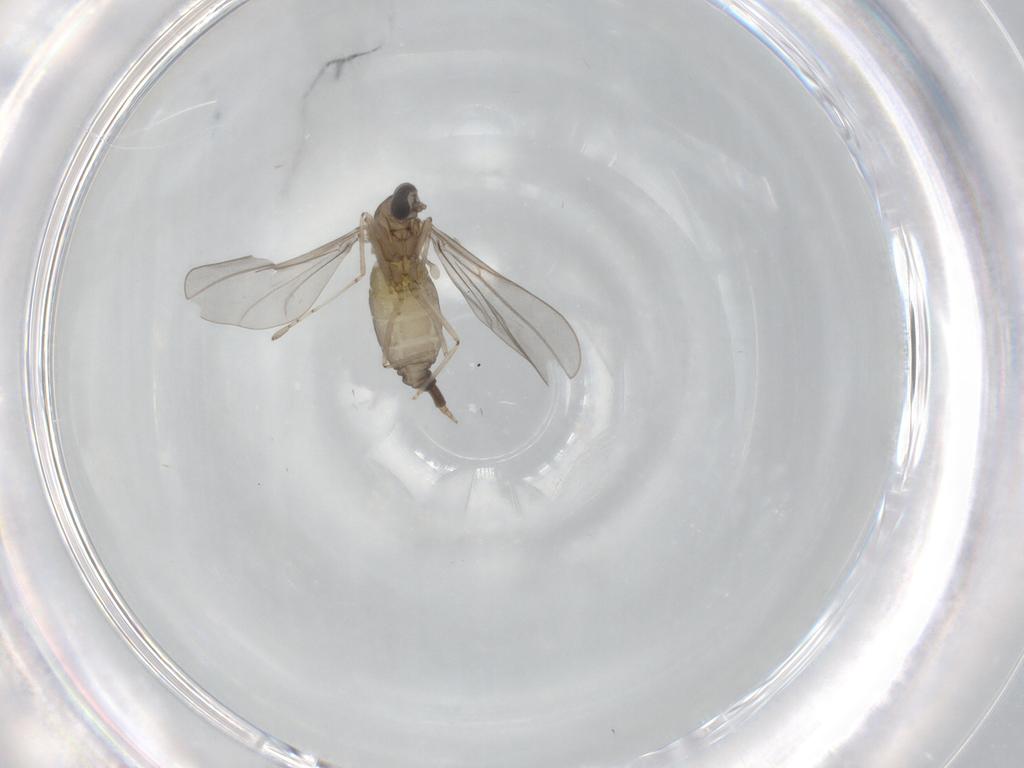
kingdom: Animalia
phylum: Arthropoda
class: Insecta
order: Diptera
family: Cecidomyiidae
